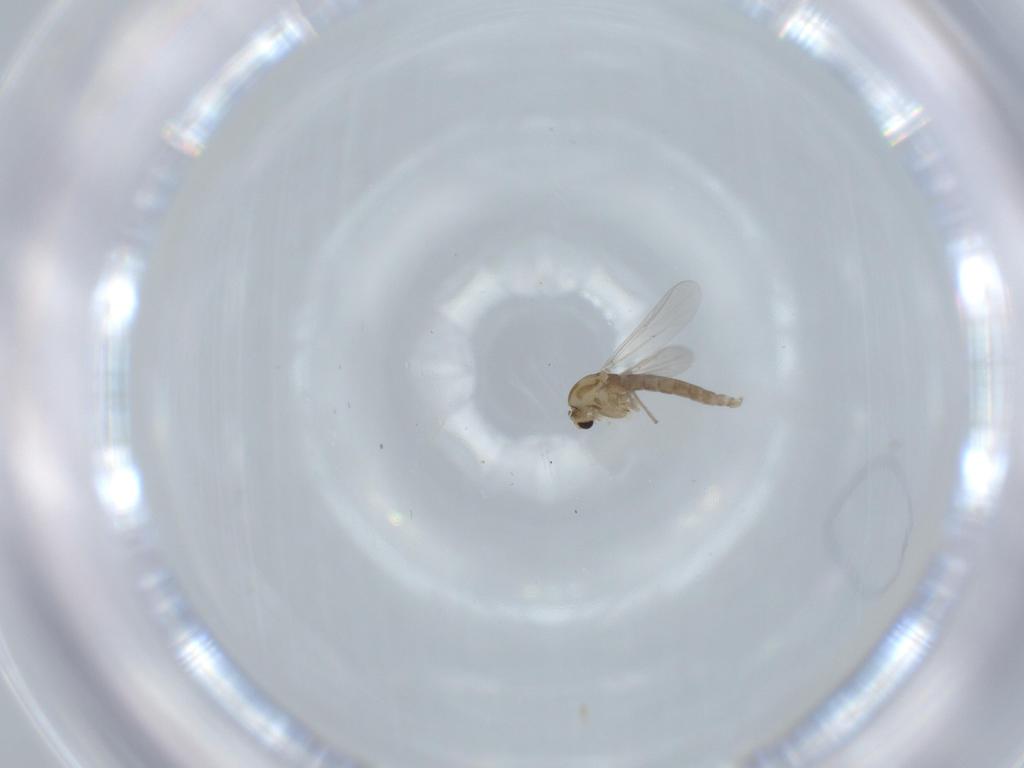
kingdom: Animalia
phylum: Arthropoda
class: Insecta
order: Diptera
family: Chironomidae
